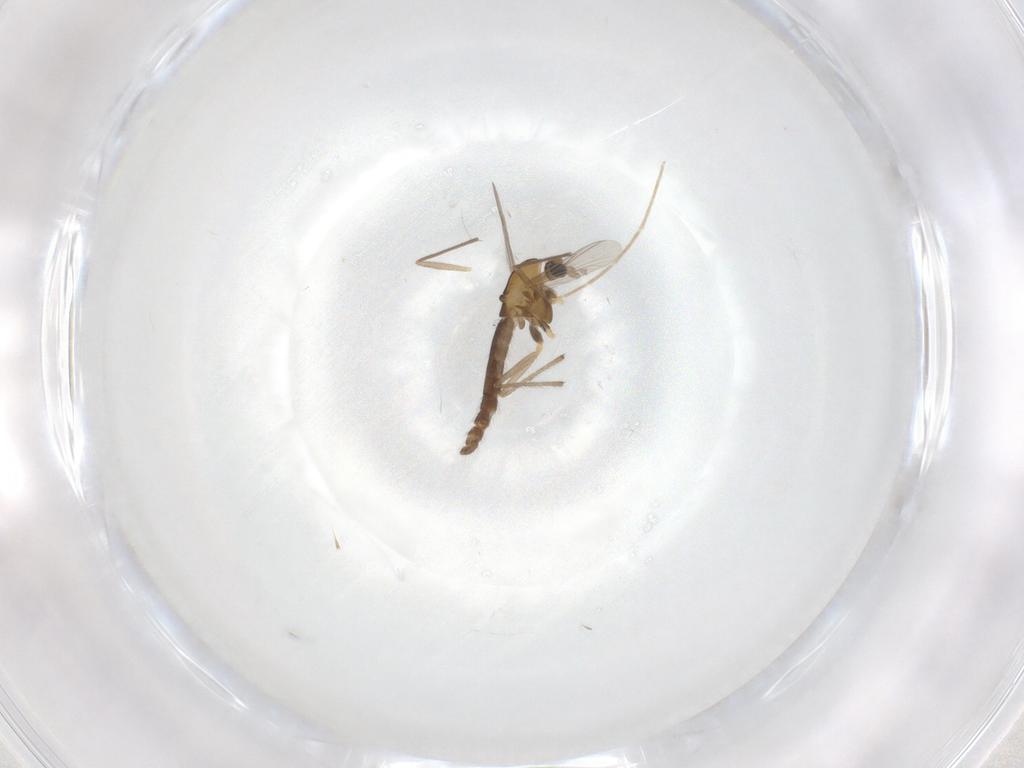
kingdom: Animalia
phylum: Arthropoda
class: Insecta
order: Diptera
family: Chironomidae
